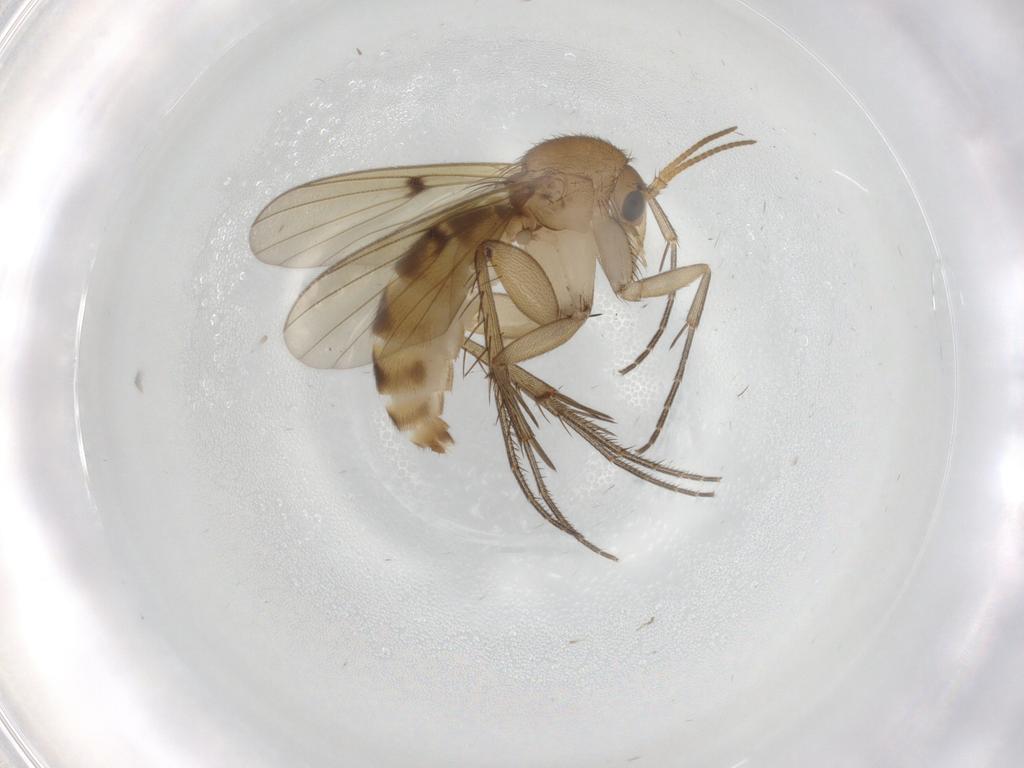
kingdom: Animalia
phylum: Arthropoda
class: Insecta
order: Diptera
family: Mycetophilidae
